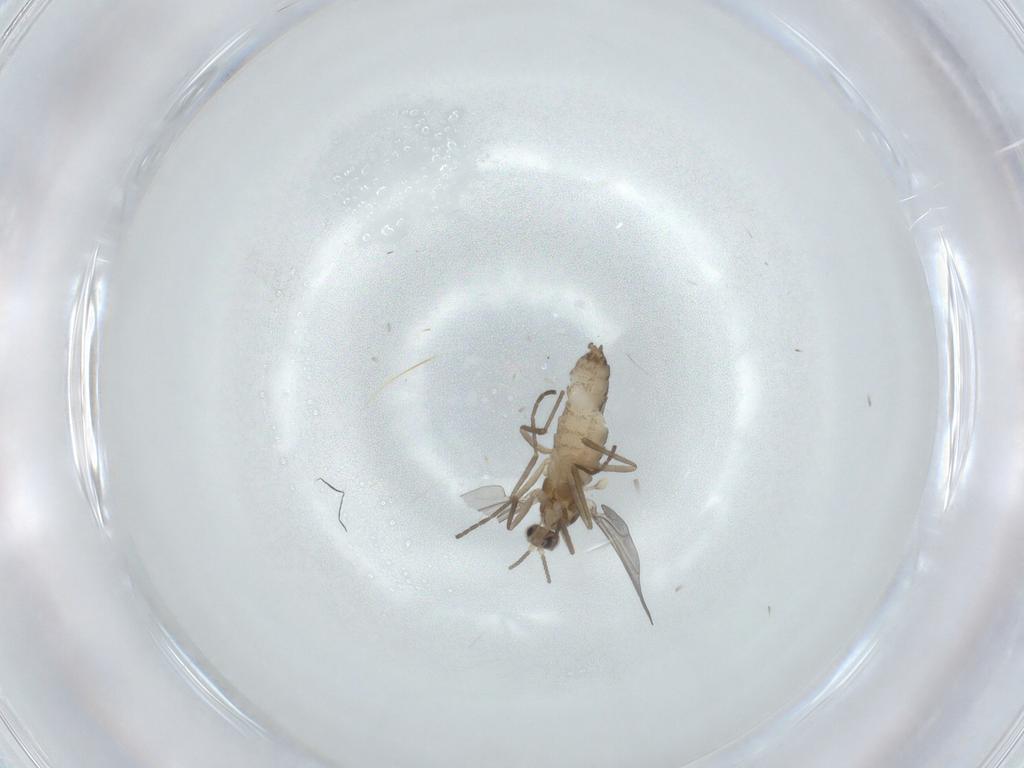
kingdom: Animalia
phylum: Arthropoda
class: Insecta
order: Diptera
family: Cecidomyiidae
